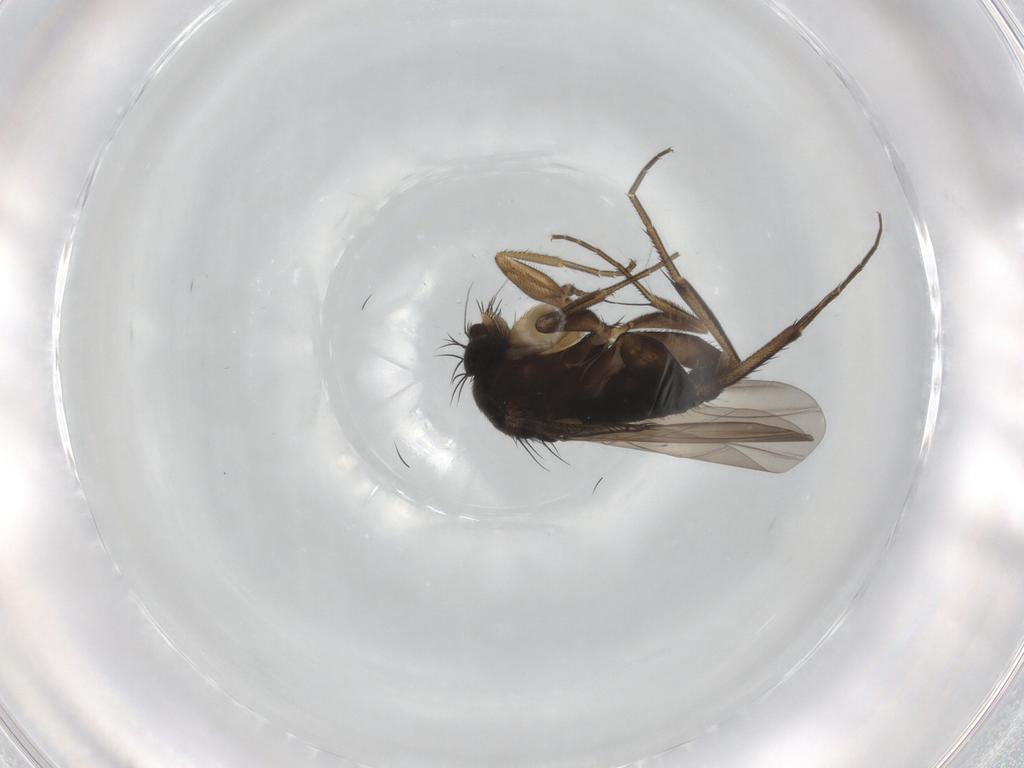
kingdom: Animalia
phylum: Arthropoda
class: Insecta
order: Diptera
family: Phoridae
